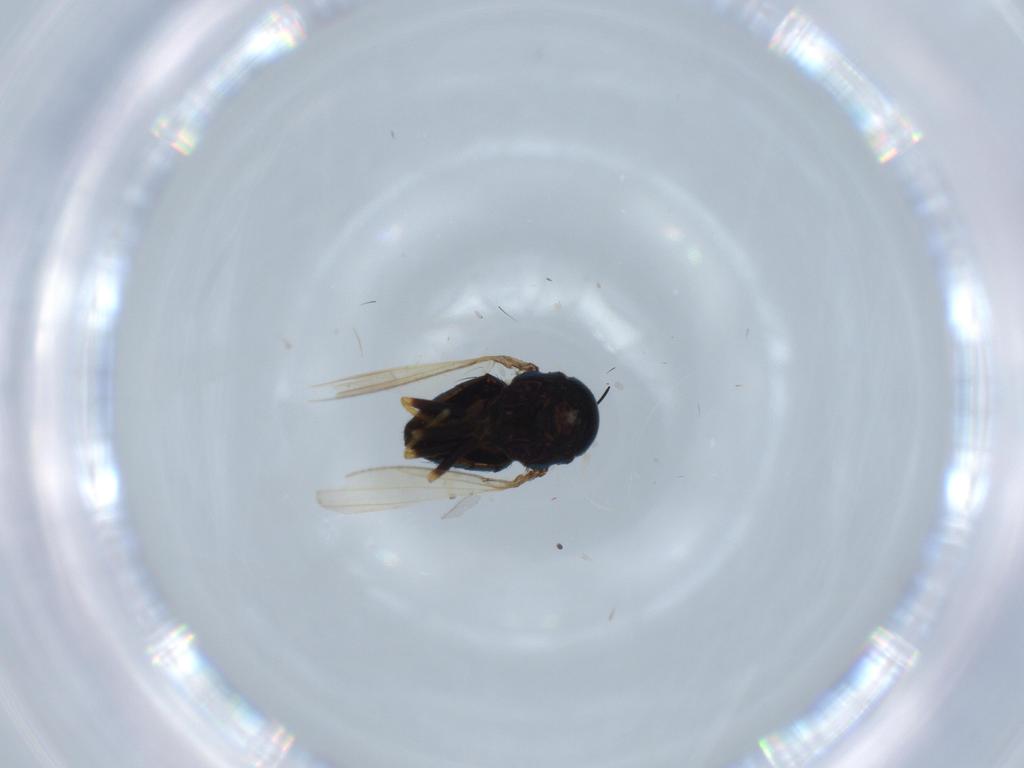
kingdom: Animalia
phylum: Arthropoda
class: Insecta
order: Diptera
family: Ephydridae
